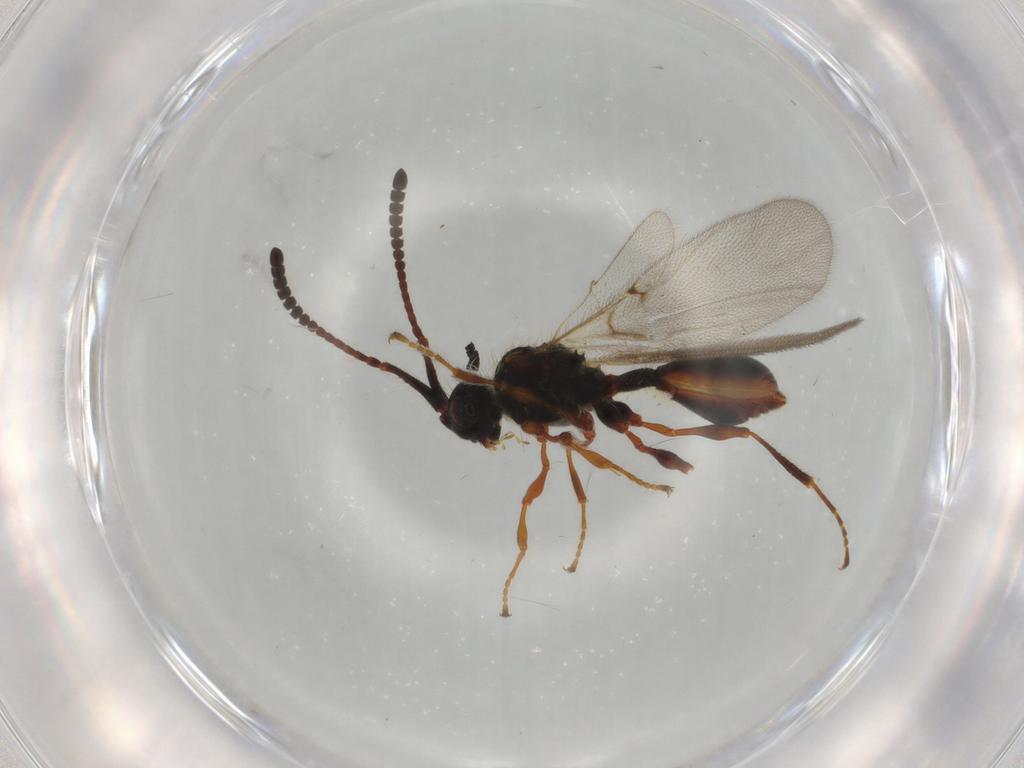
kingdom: Animalia
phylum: Arthropoda
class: Insecta
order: Hymenoptera
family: Diapriidae
